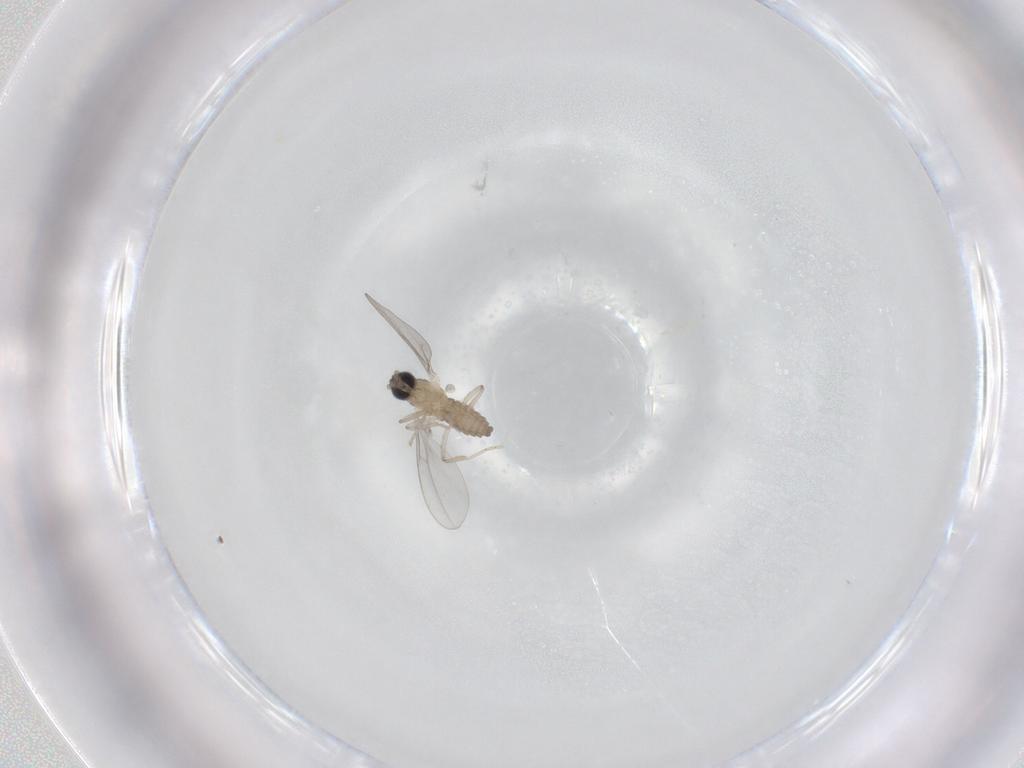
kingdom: Animalia
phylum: Arthropoda
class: Insecta
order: Diptera
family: Cecidomyiidae
